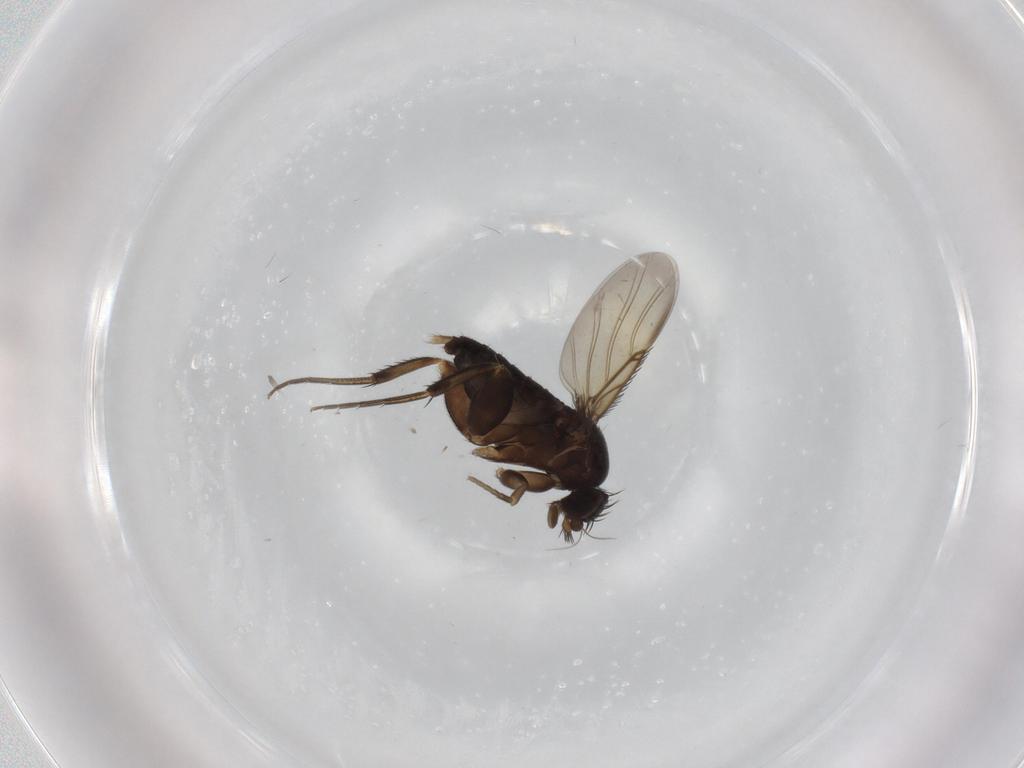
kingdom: Animalia
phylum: Arthropoda
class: Insecta
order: Diptera
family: Phoridae
